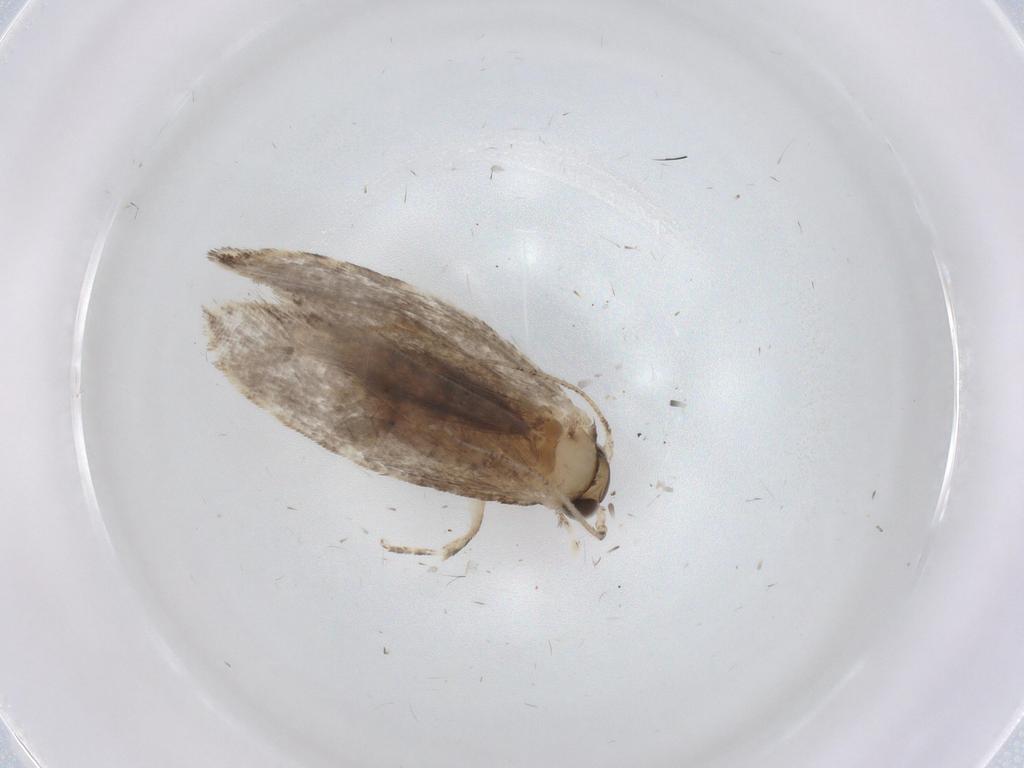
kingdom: Animalia
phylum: Arthropoda
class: Insecta
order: Lepidoptera
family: Tineidae
